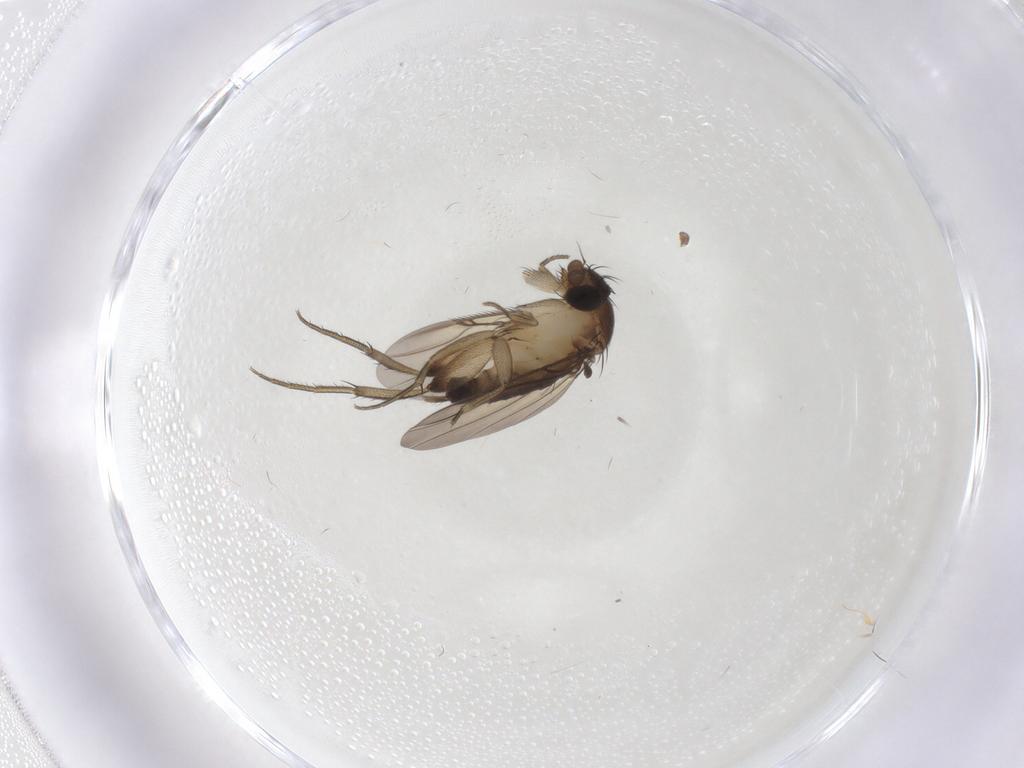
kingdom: Animalia
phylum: Arthropoda
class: Insecta
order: Diptera
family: Phoridae
